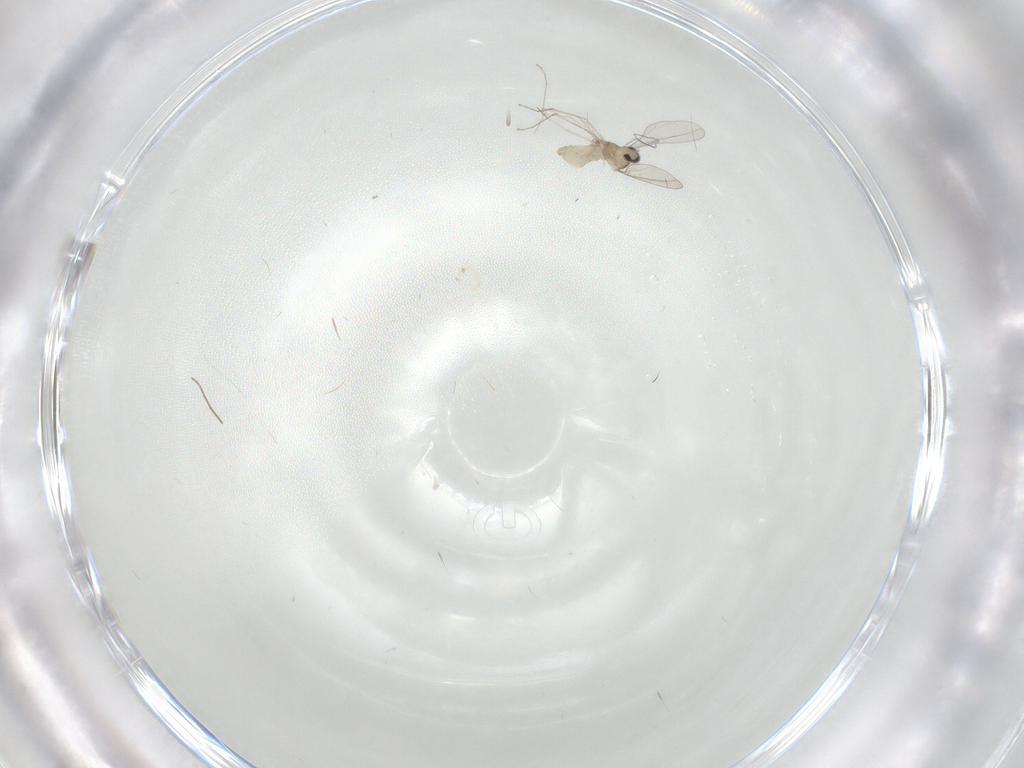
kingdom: Animalia
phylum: Arthropoda
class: Insecta
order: Diptera
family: Cecidomyiidae
